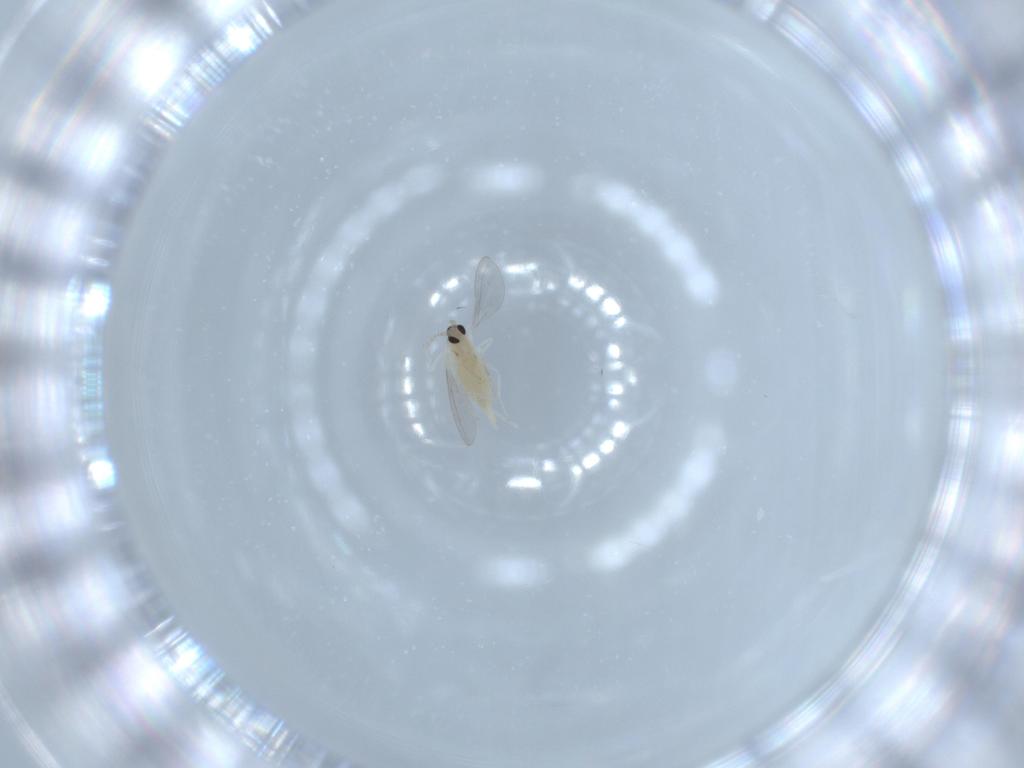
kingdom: Animalia
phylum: Arthropoda
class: Insecta
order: Diptera
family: Cecidomyiidae
